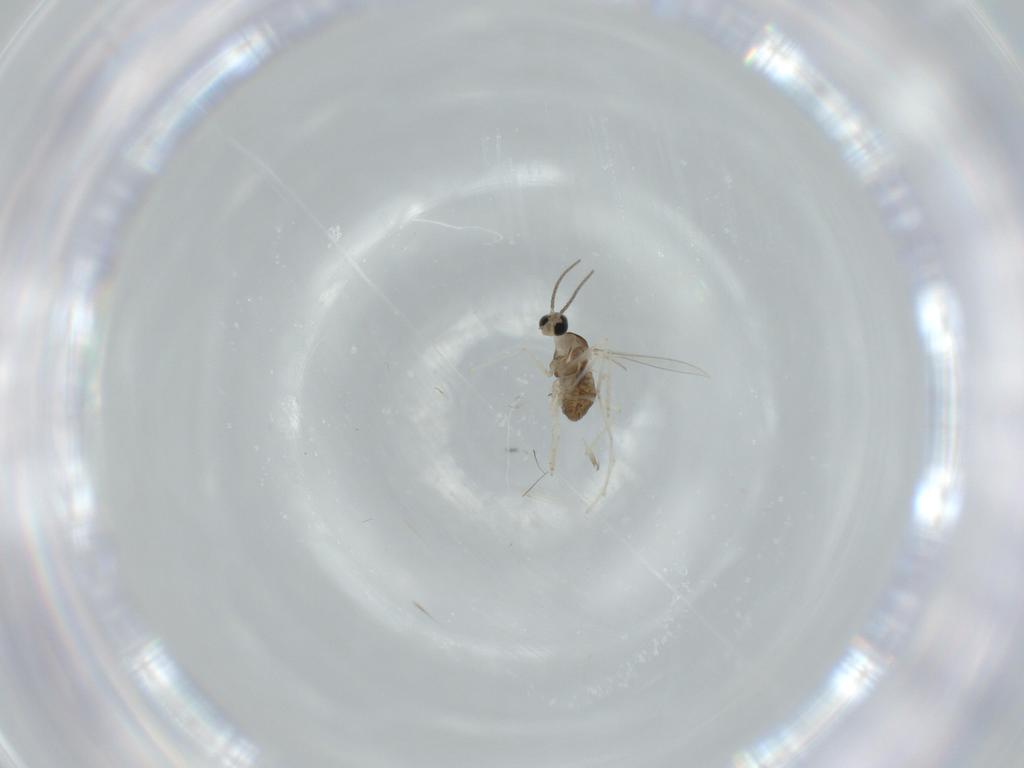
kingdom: Animalia
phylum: Arthropoda
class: Insecta
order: Diptera
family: Cecidomyiidae
